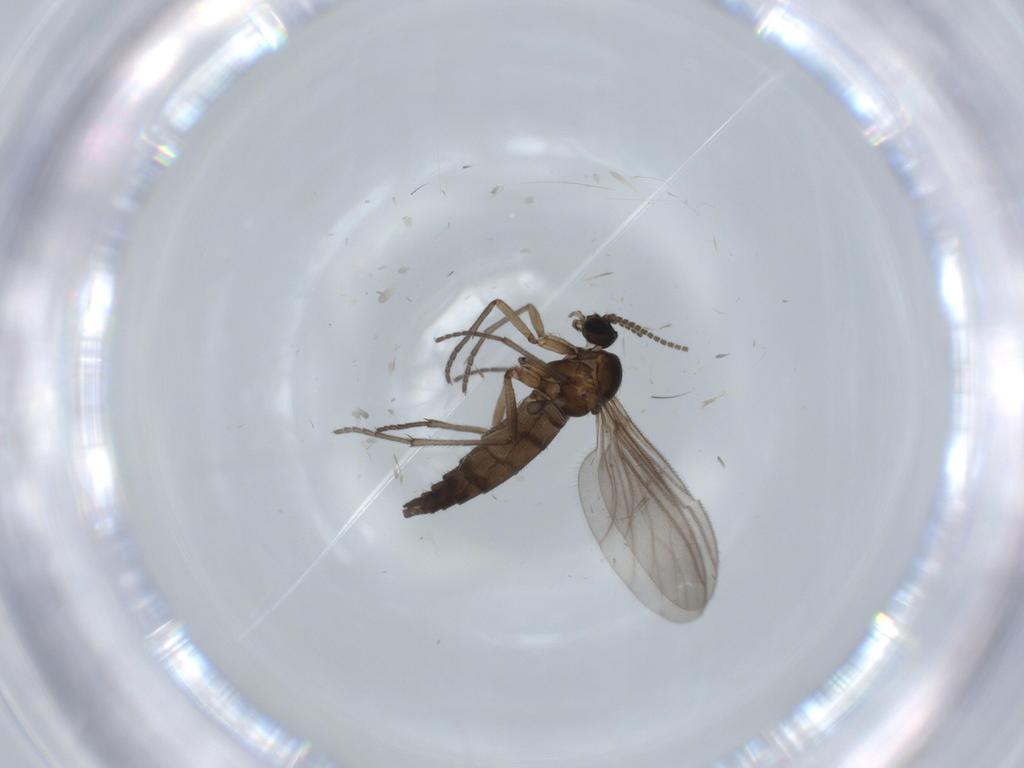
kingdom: Animalia
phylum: Arthropoda
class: Insecta
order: Diptera
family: Sciaridae
